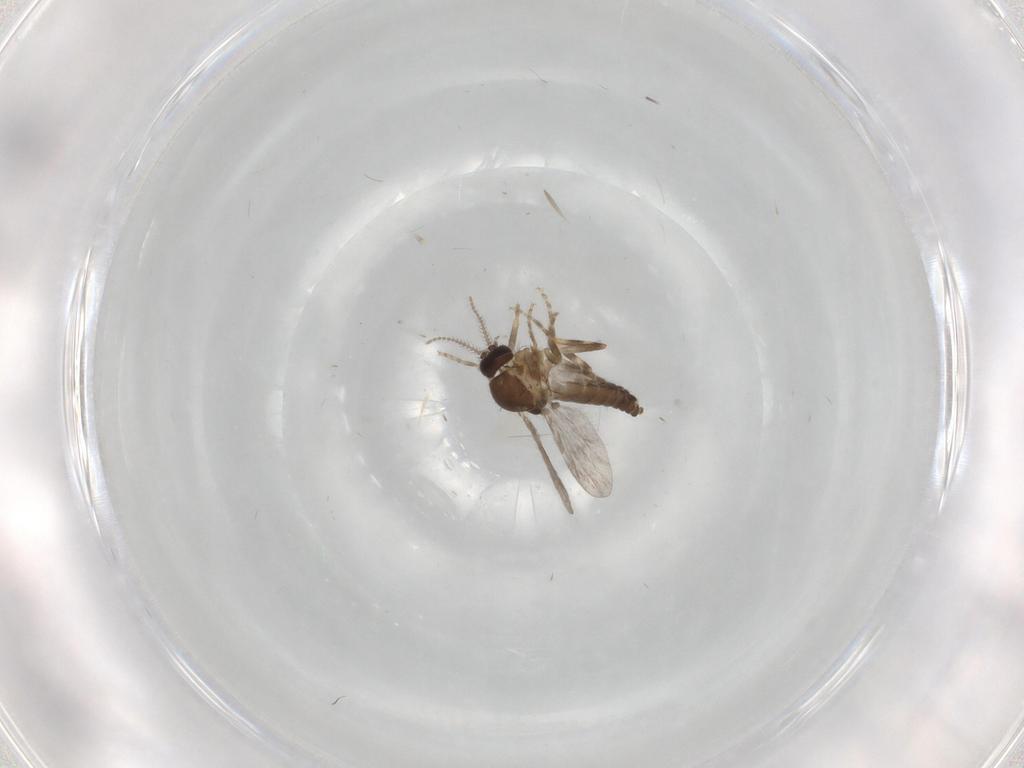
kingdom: Animalia
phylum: Arthropoda
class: Insecta
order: Diptera
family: Ceratopogonidae
